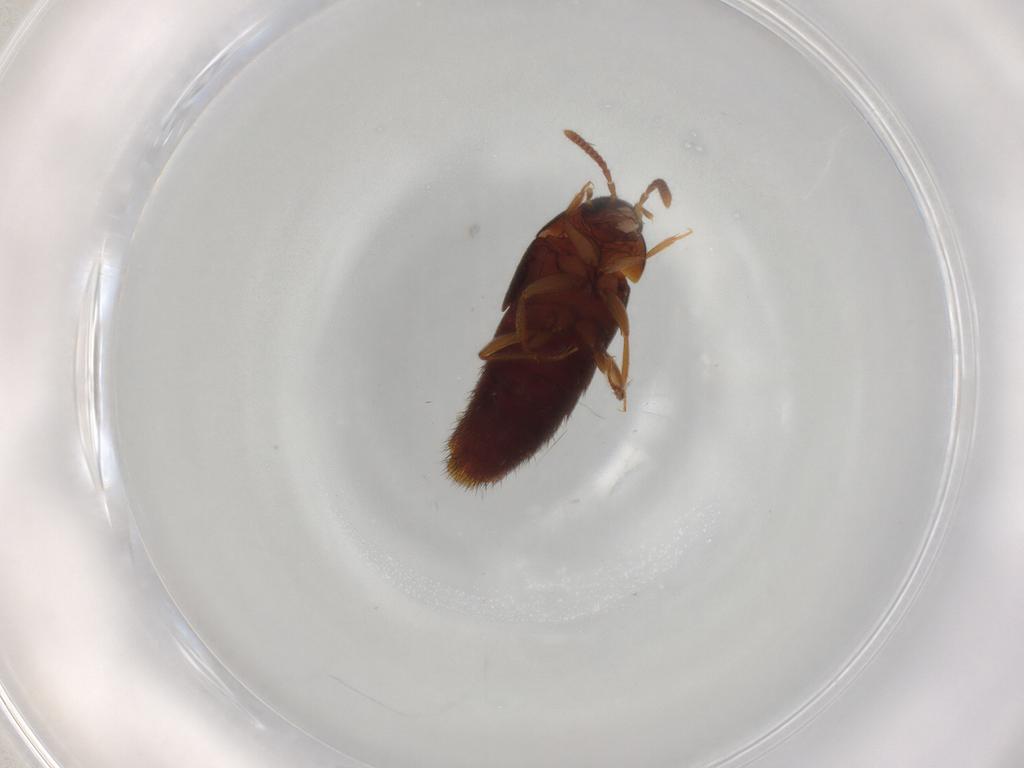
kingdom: Animalia
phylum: Arthropoda
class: Insecta
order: Coleoptera
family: Staphylinidae
